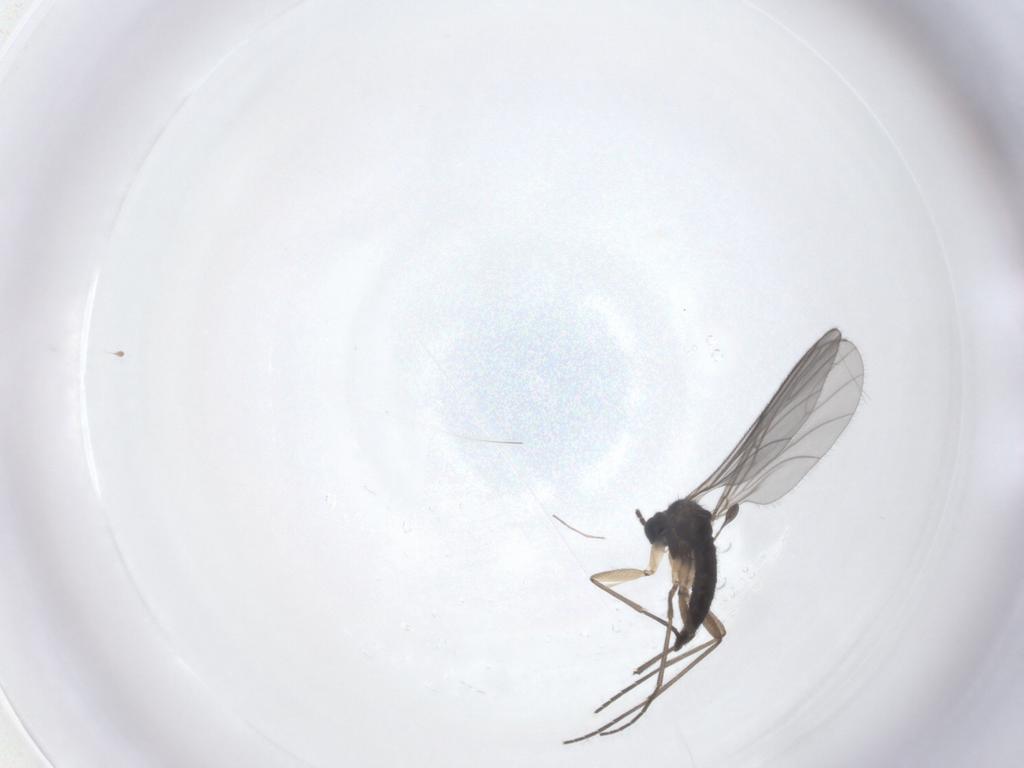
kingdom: Animalia
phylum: Arthropoda
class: Insecta
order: Diptera
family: Sciaridae
